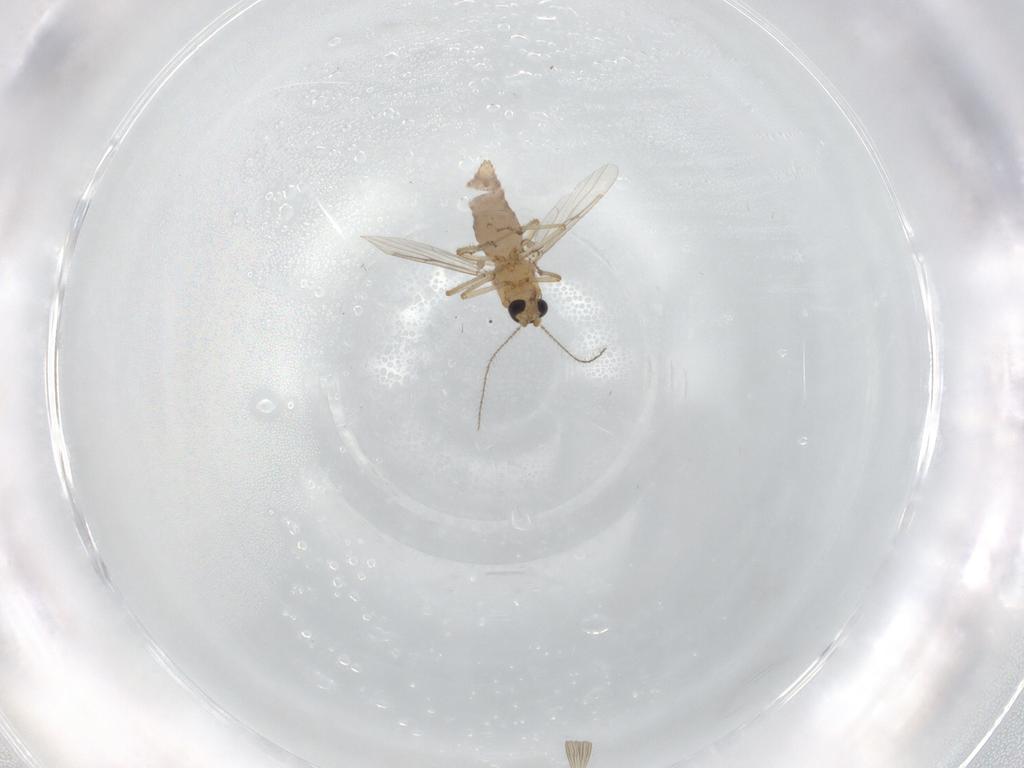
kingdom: Animalia
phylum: Arthropoda
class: Insecta
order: Diptera
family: Ceratopogonidae
